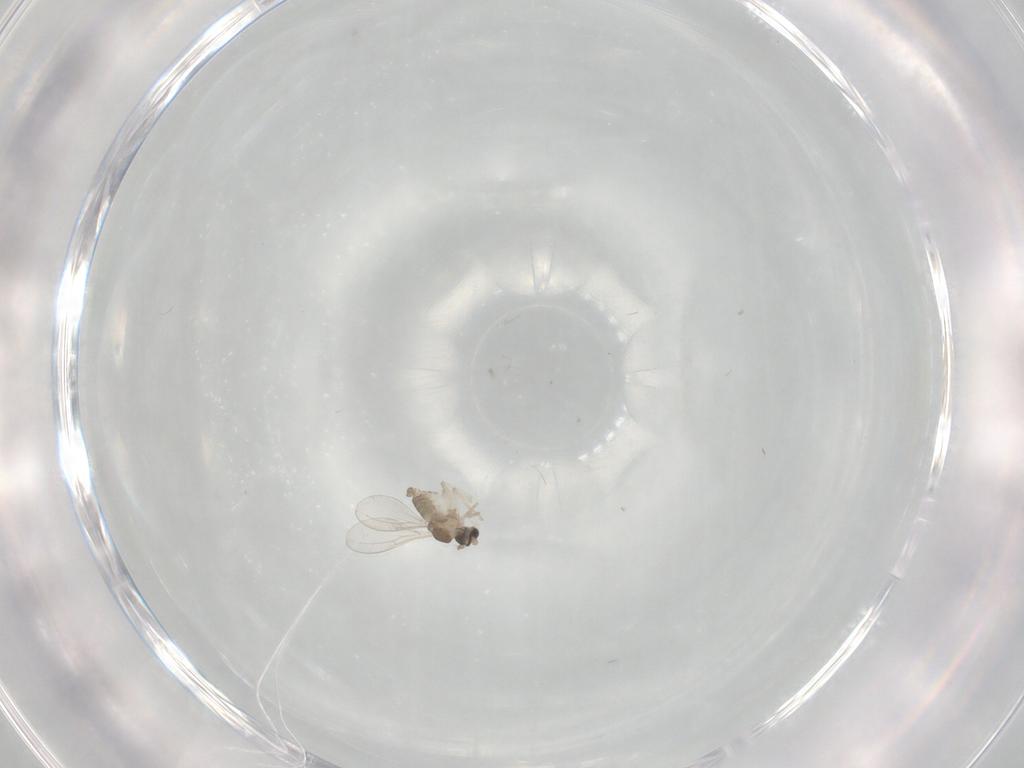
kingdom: Animalia
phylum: Arthropoda
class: Insecta
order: Diptera
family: Cecidomyiidae
